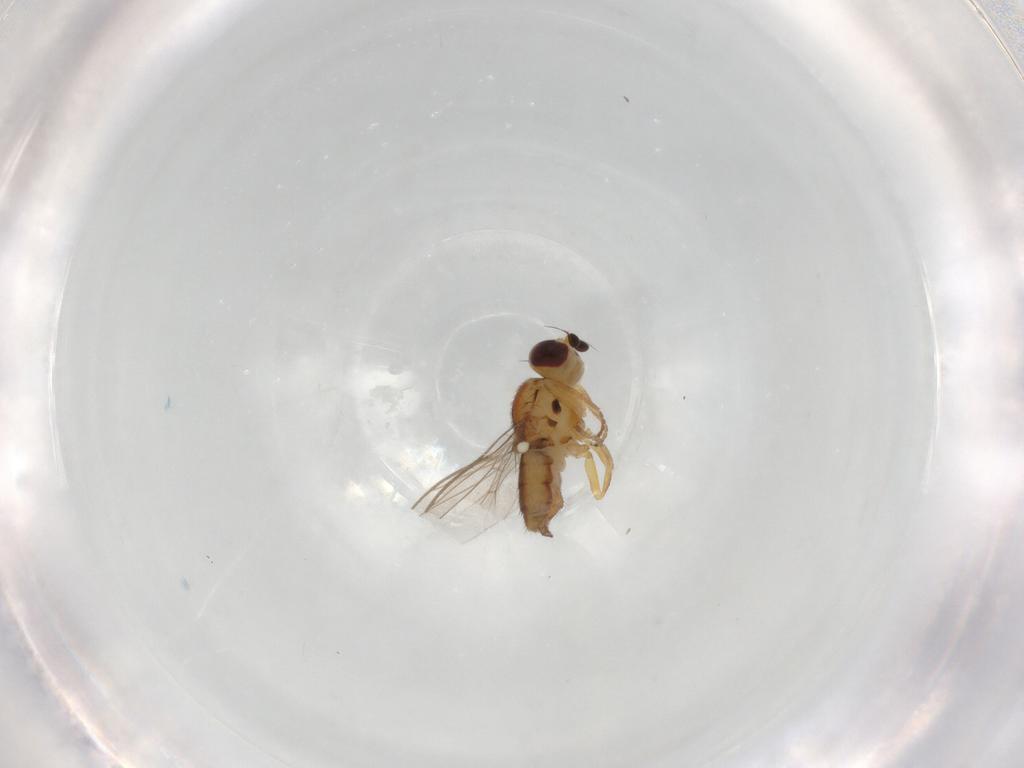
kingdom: Animalia
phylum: Arthropoda
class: Insecta
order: Diptera
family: Chloropidae
